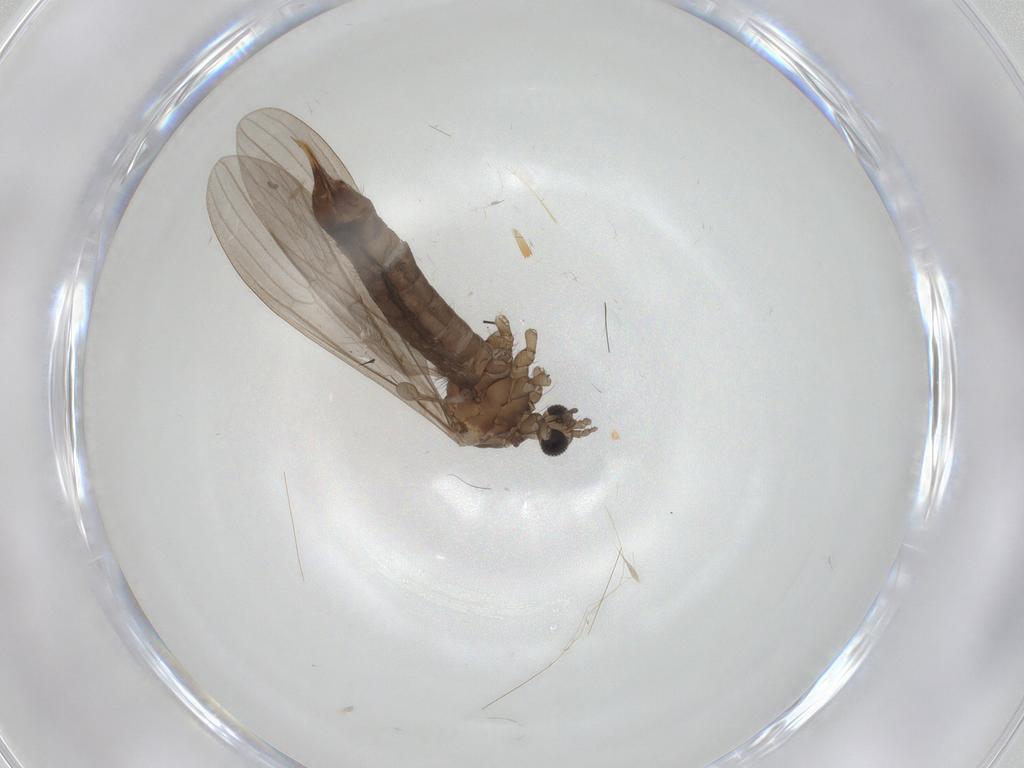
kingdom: Animalia
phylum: Arthropoda
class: Insecta
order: Diptera
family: Limoniidae
